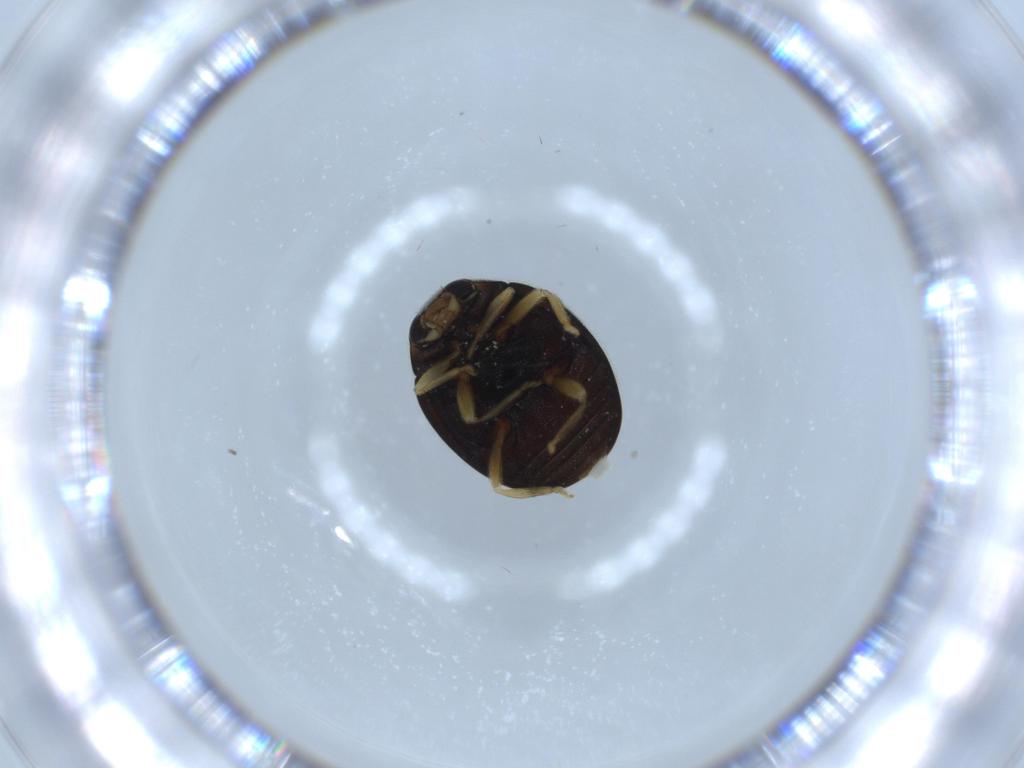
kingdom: Animalia
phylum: Arthropoda
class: Insecta
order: Coleoptera
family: Coccinellidae
